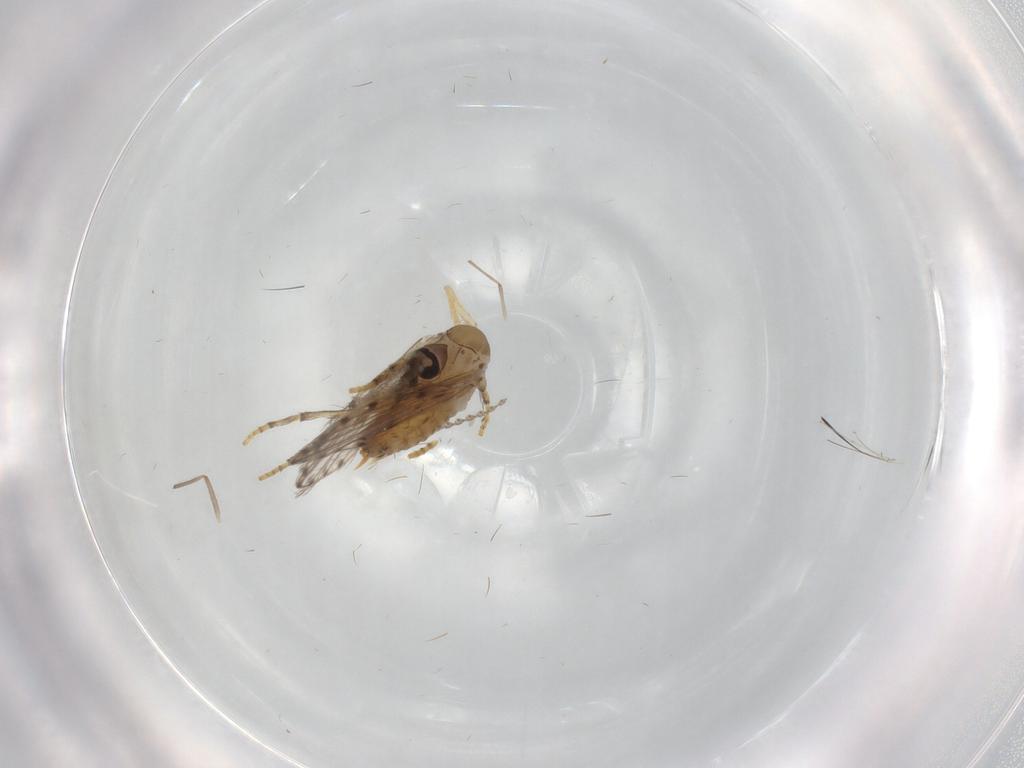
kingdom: Animalia
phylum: Arthropoda
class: Insecta
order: Diptera
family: Psychodidae
